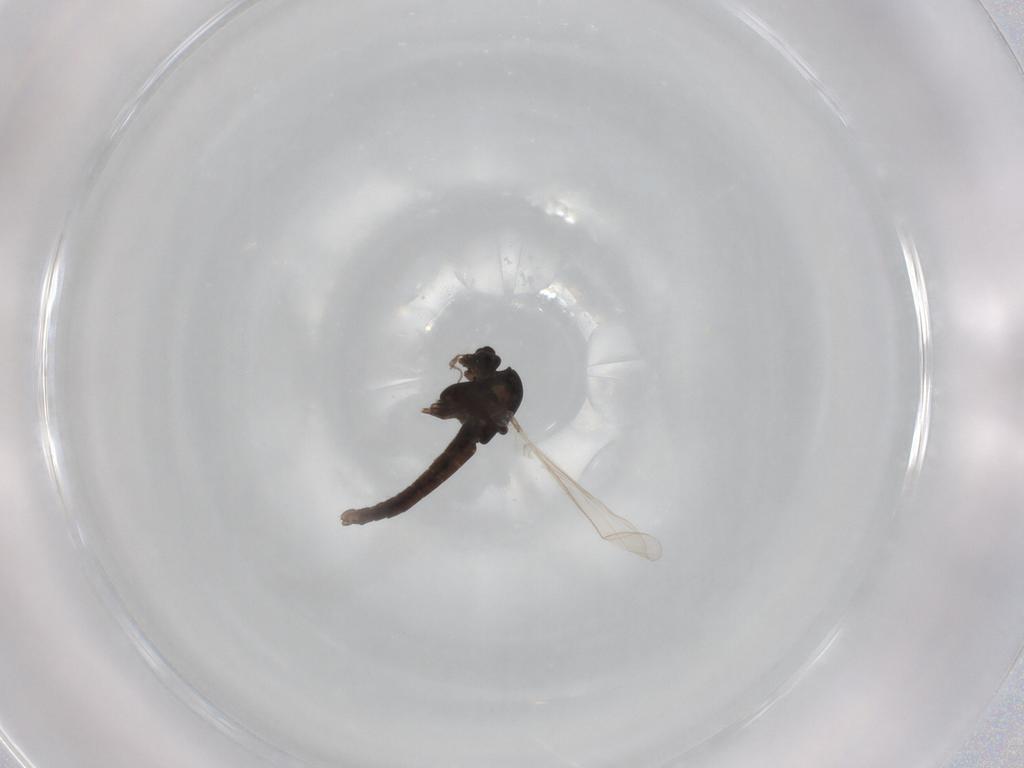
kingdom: Animalia
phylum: Arthropoda
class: Insecta
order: Diptera
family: Chironomidae
